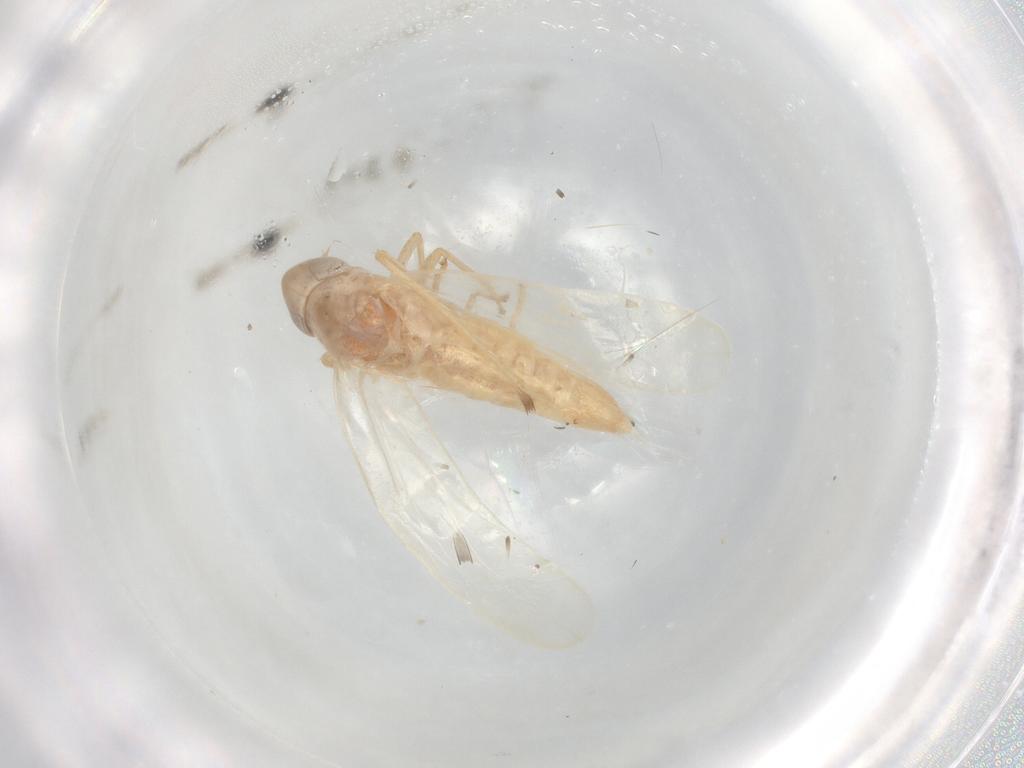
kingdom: Animalia
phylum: Arthropoda
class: Insecta
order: Hemiptera
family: Cicadellidae
